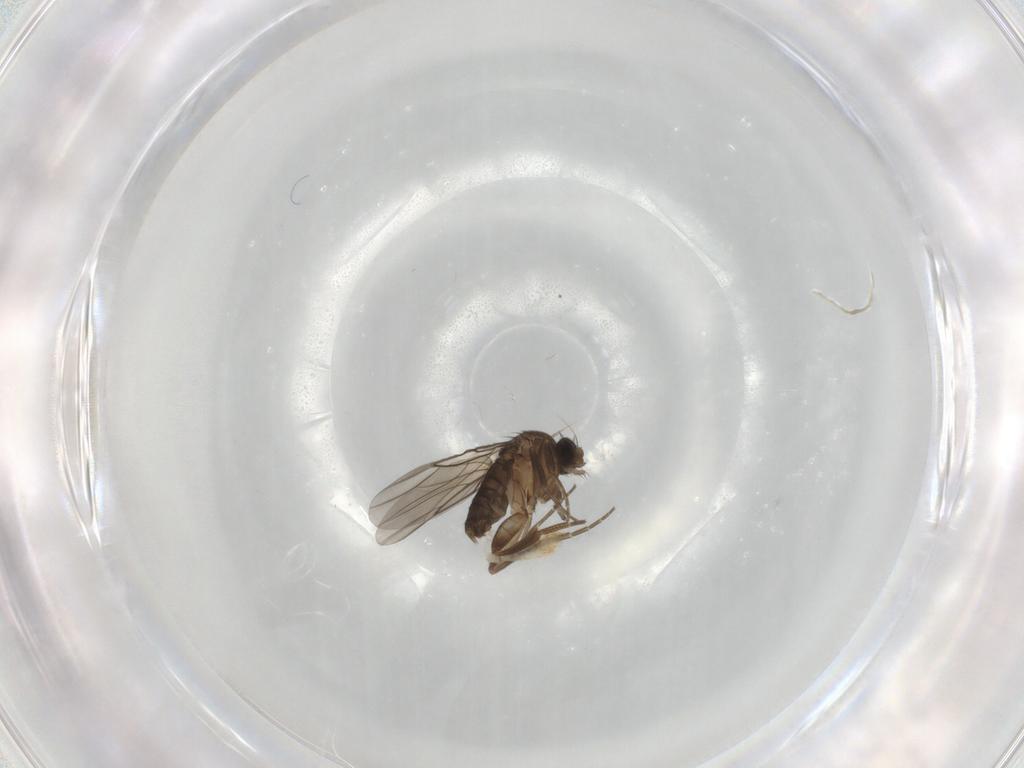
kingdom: Animalia
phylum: Arthropoda
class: Insecta
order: Diptera
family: Phoridae
